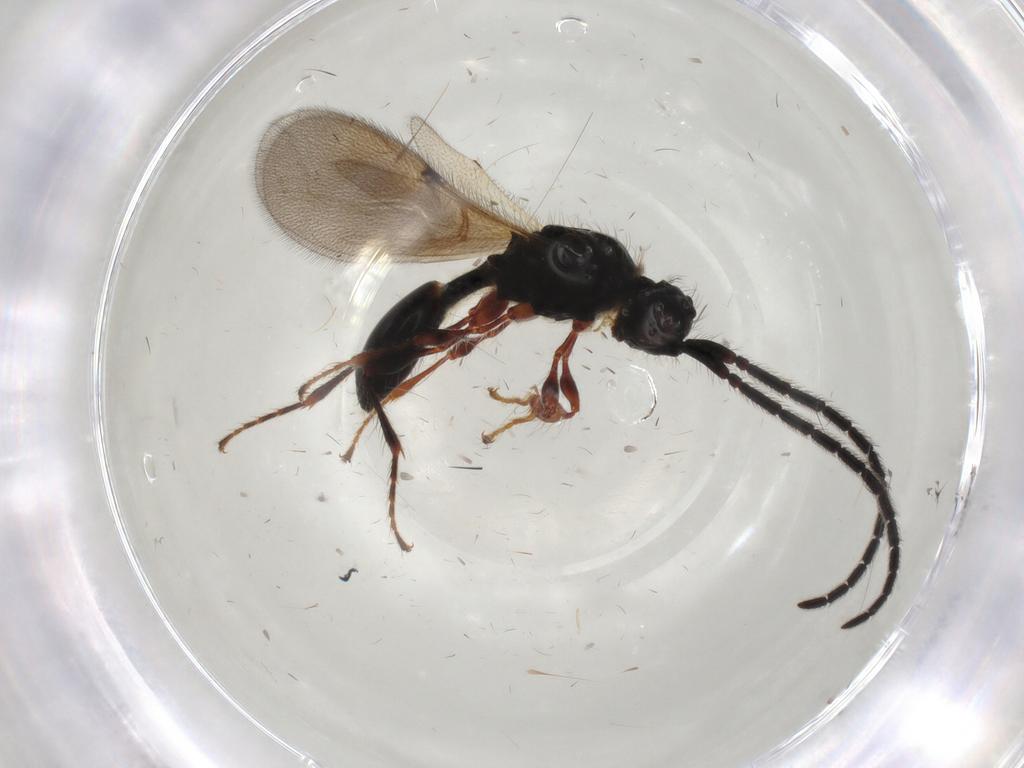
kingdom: Animalia
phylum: Arthropoda
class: Insecta
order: Hymenoptera
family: Diapriidae
